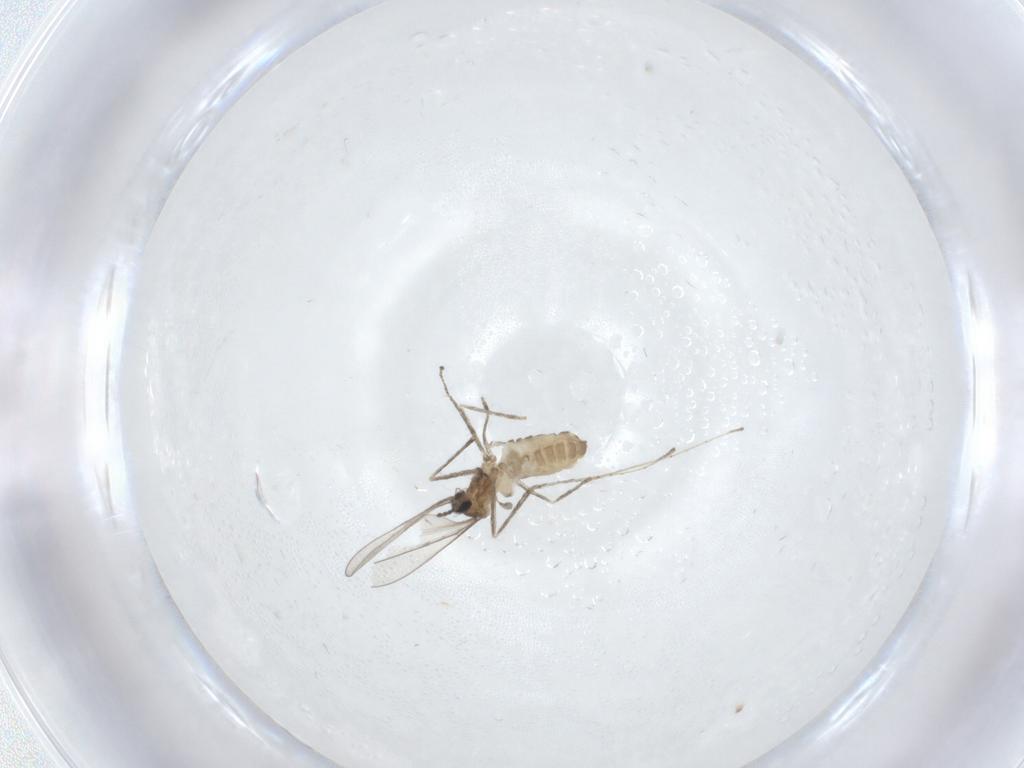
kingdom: Animalia
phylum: Arthropoda
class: Insecta
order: Diptera
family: Cecidomyiidae
